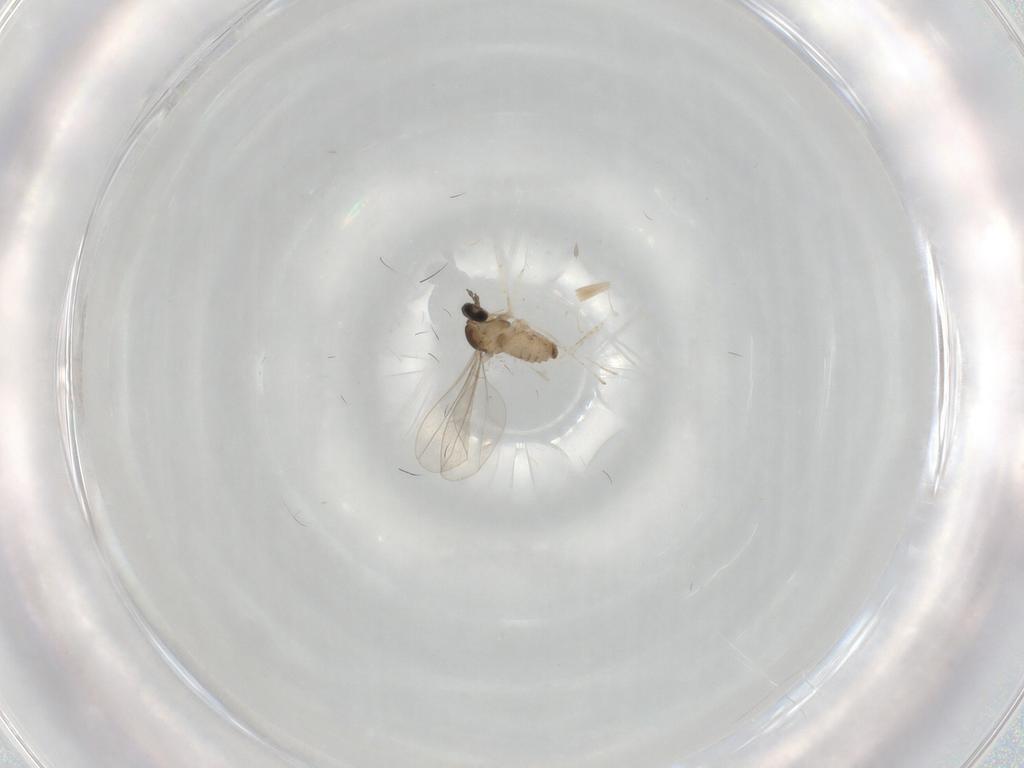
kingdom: Animalia
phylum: Arthropoda
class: Insecta
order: Diptera
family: Cecidomyiidae
